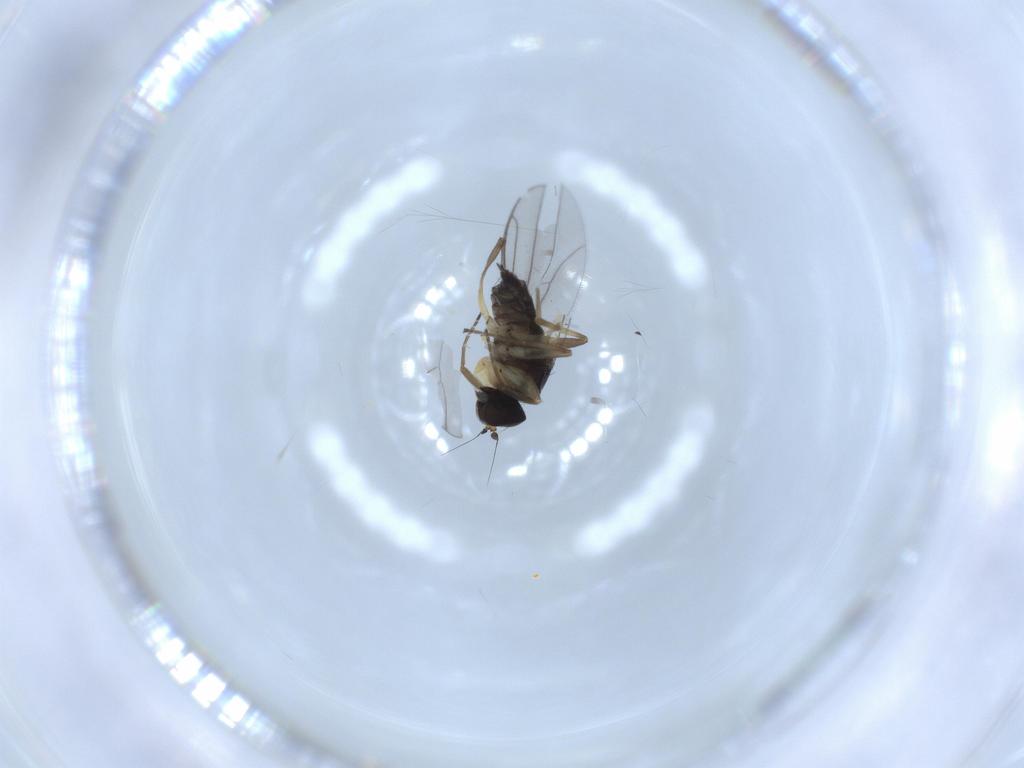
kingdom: Animalia
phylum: Arthropoda
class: Insecta
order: Diptera
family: Hybotidae
